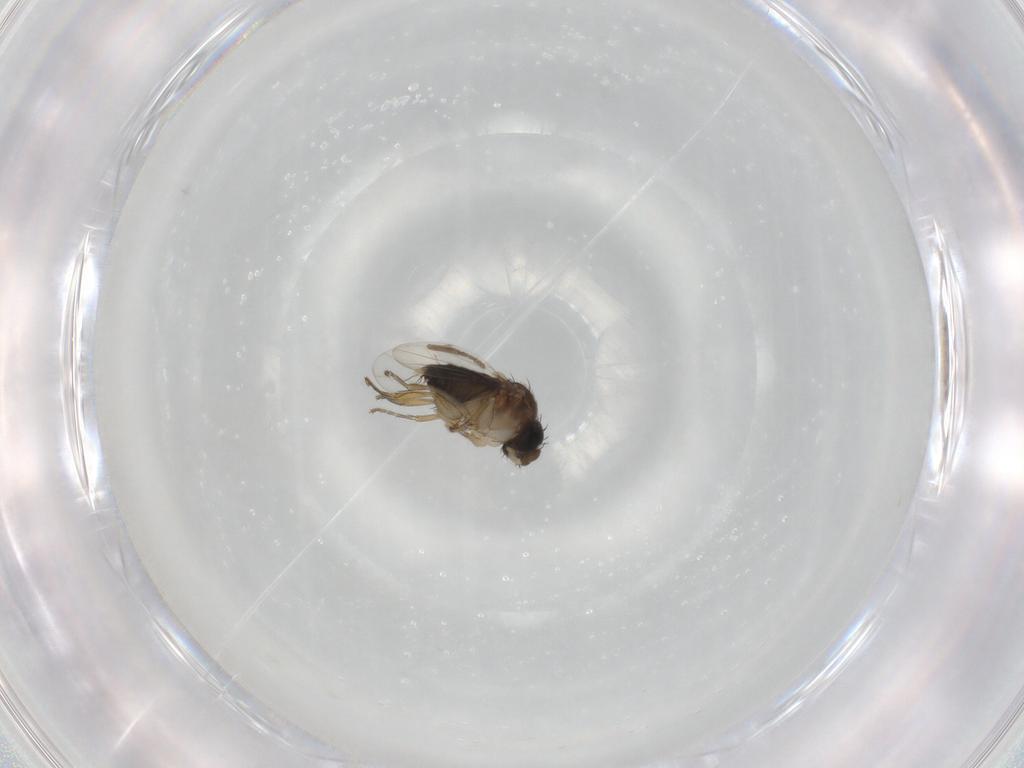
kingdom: Animalia
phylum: Arthropoda
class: Insecta
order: Diptera
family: Phoridae
